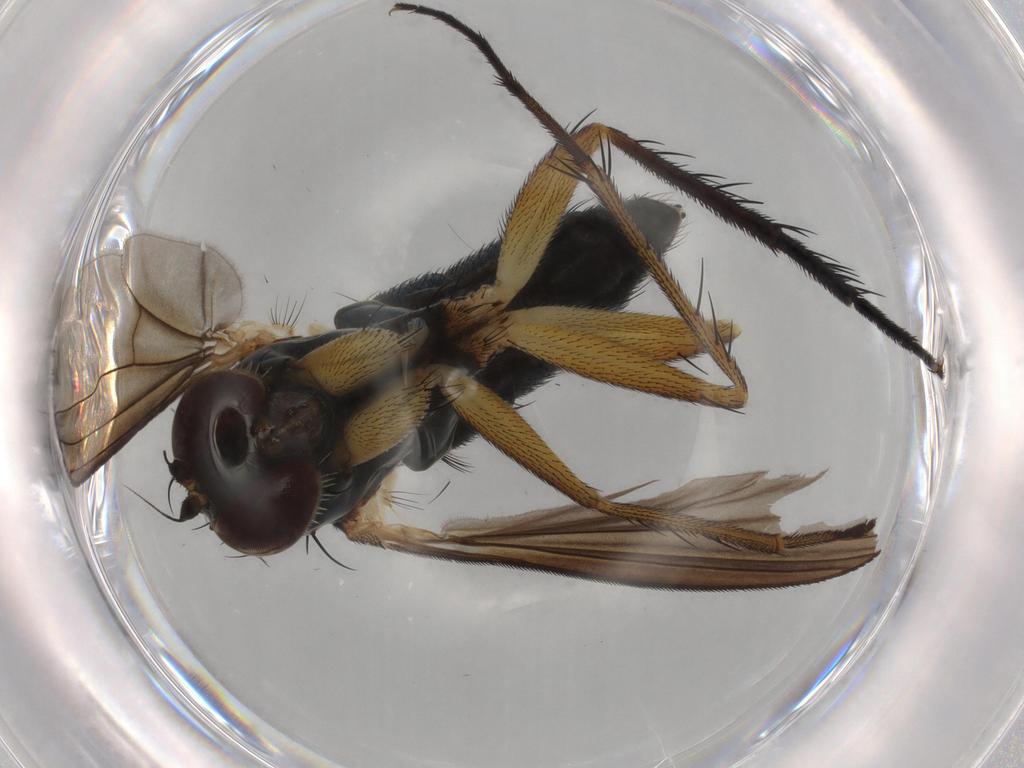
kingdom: Animalia
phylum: Arthropoda
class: Insecta
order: Diptera
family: Dolichopodidae
